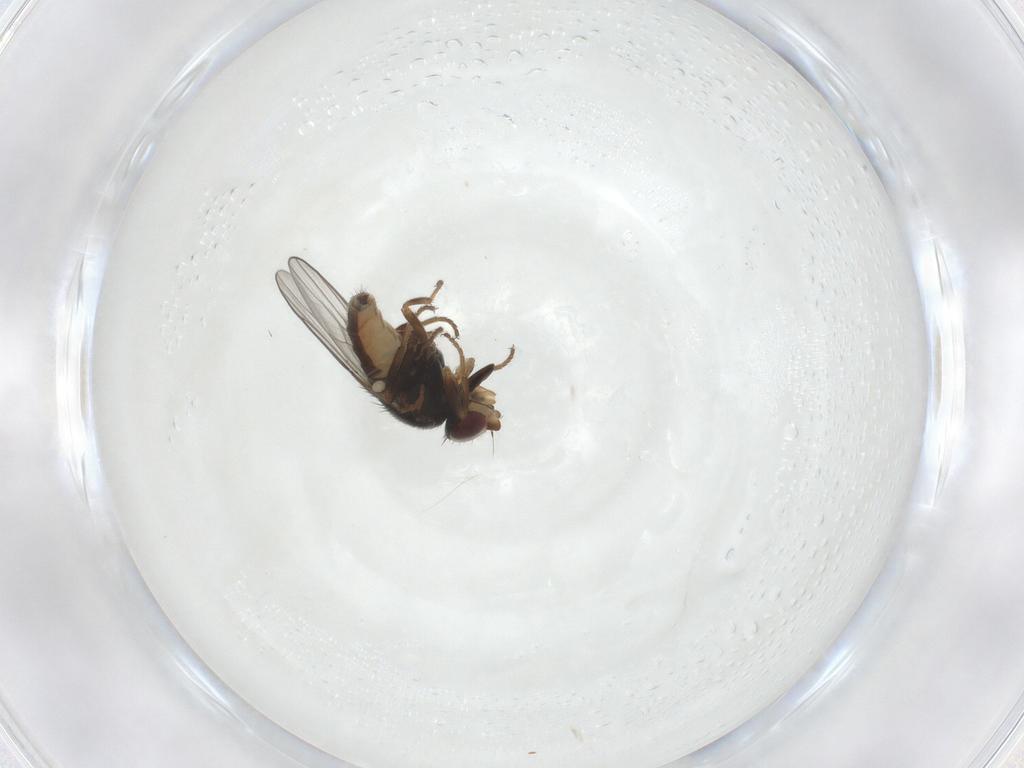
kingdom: Animalia
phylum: Arthropoda
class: Insecta
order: Diptera
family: Chloropidae
